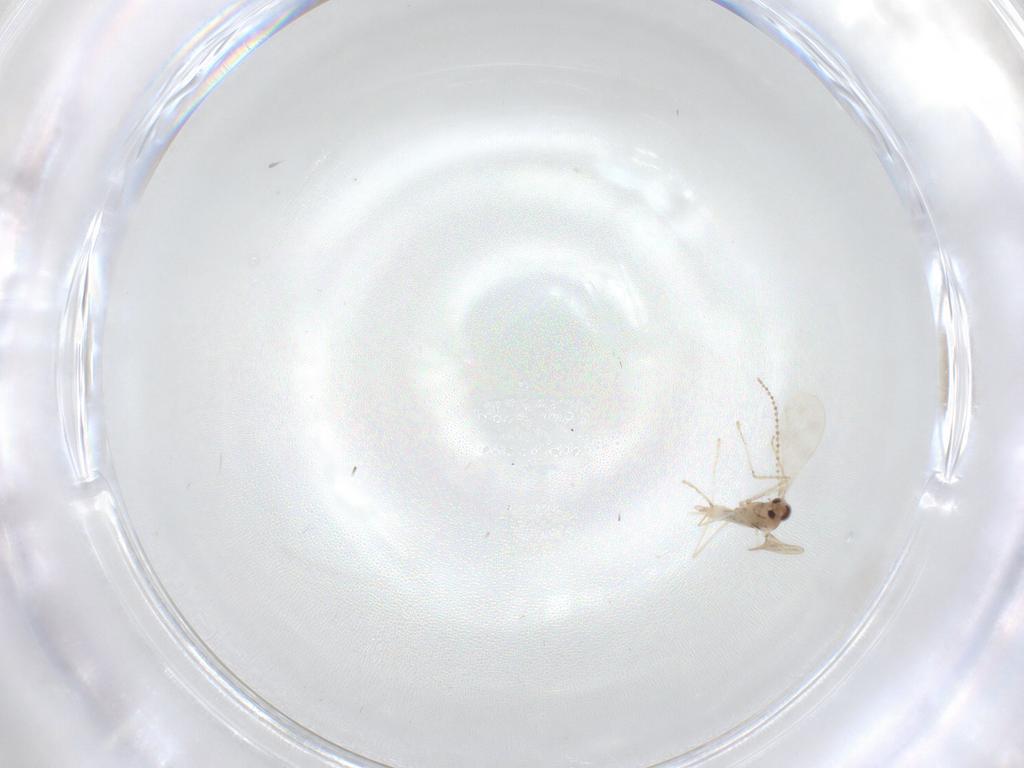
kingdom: Animalia
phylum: Arthropoda
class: Insecta
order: Diptera
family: Cecidomyiidae
